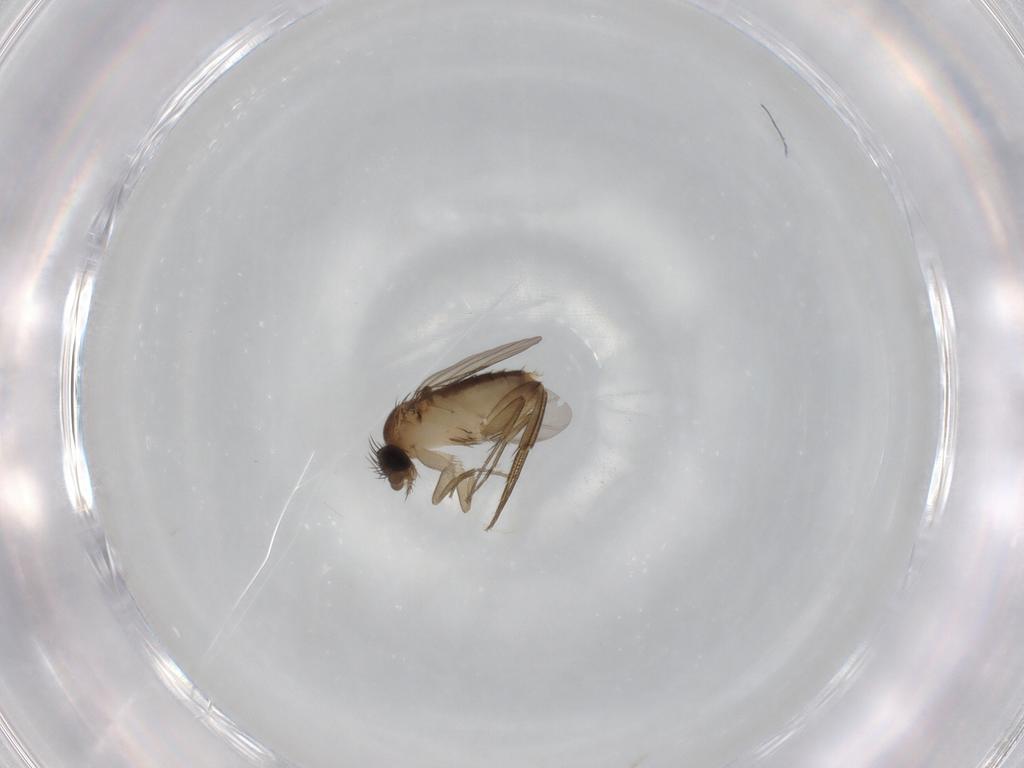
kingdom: Animalia
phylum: Arthropoda
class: Insecta
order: Diptera
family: Phoridae
